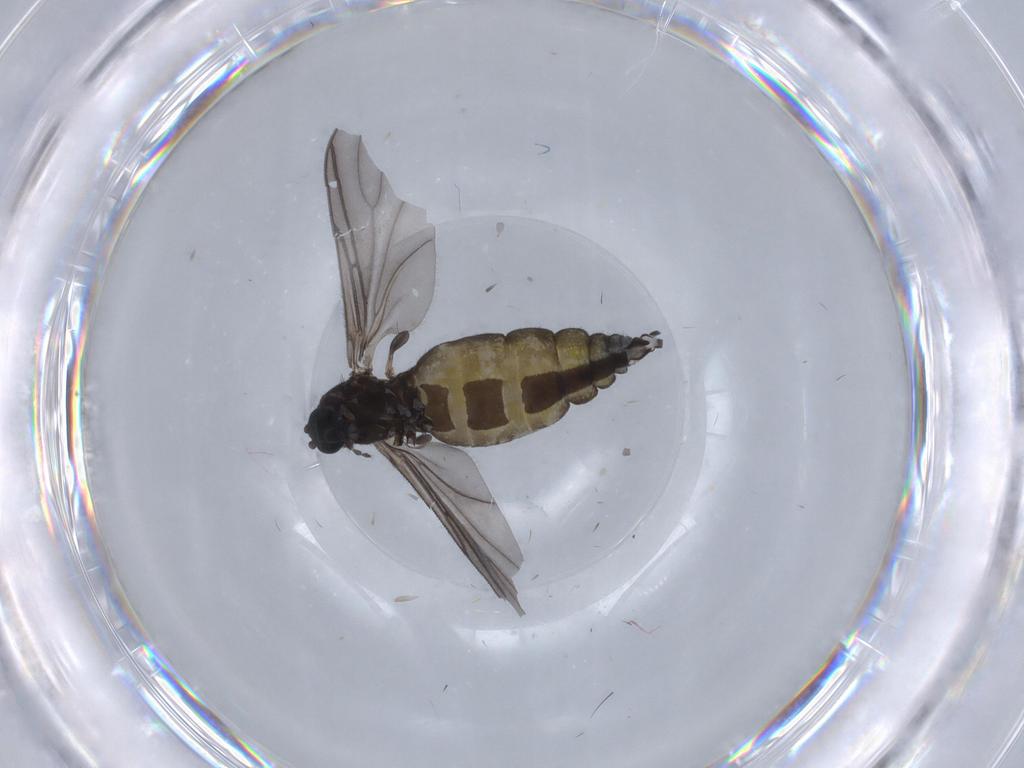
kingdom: Animalia
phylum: Arthropoda
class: Insecta
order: Diptera
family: Sciaridae
